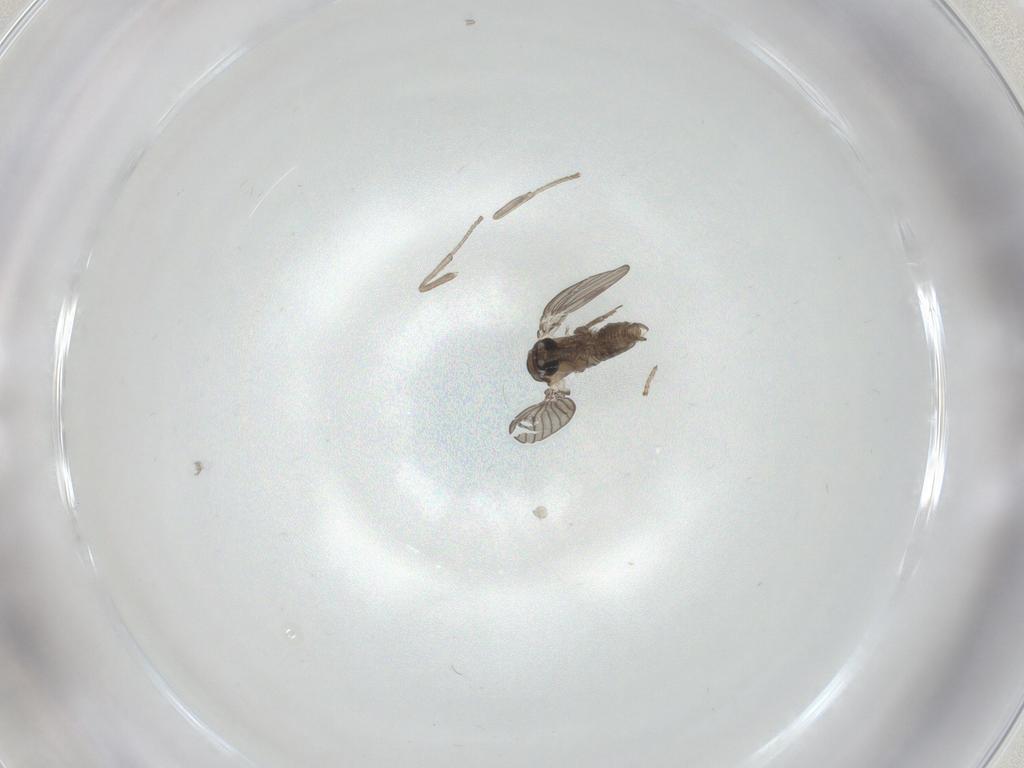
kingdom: Animalia
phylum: Arthropoda
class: Insecta
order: Diptera
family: Psychodidae
